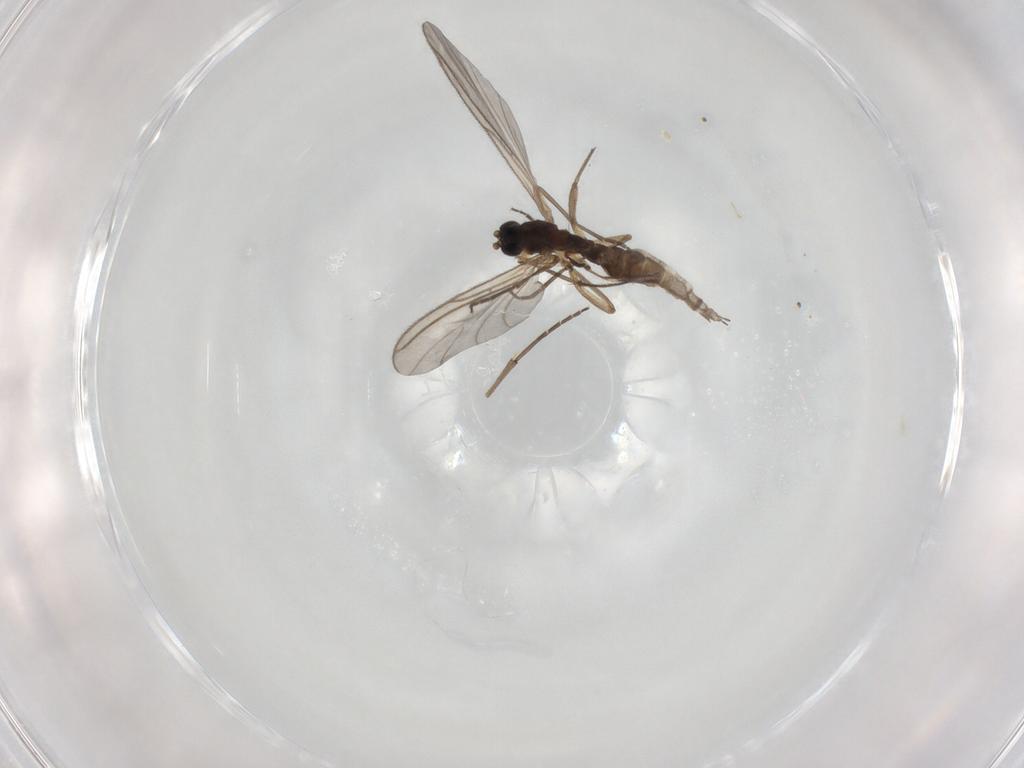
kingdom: Animalia
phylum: Arthropoda
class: Insecta
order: Diptera
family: Sciaridae
